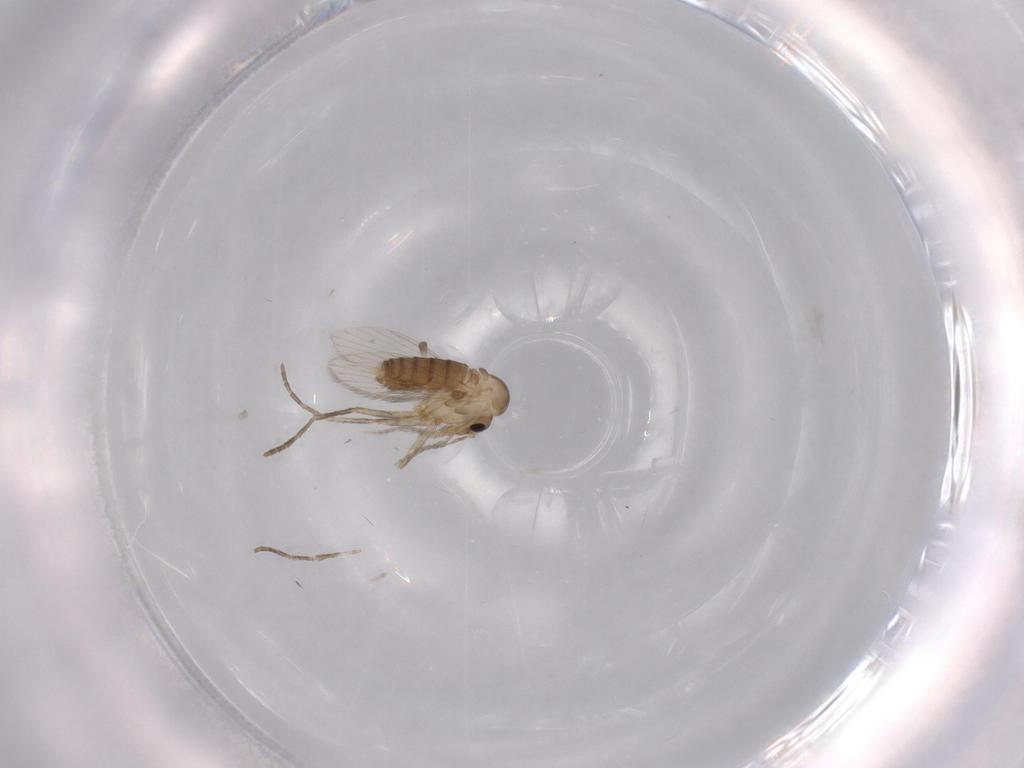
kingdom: Animalia
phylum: Arthropoda
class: Insecta
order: Diptera
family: Psychodidae
